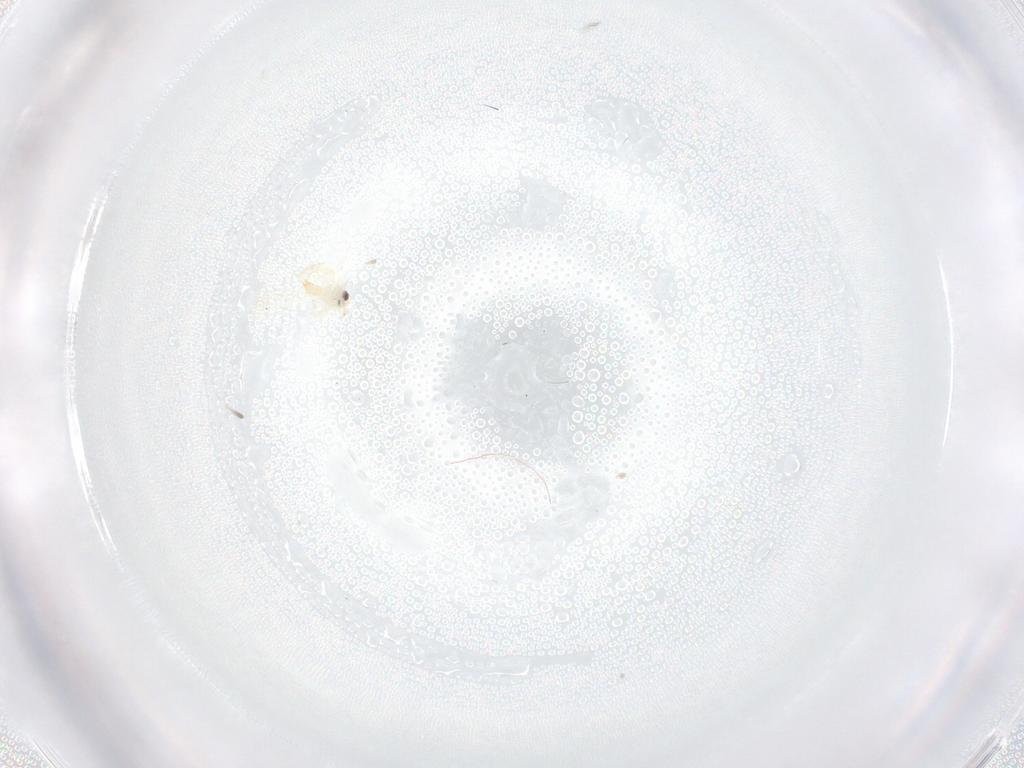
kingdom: Animalia
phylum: Arthropoda
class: Insecta
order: Hemiptera
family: Aleyrodidae
